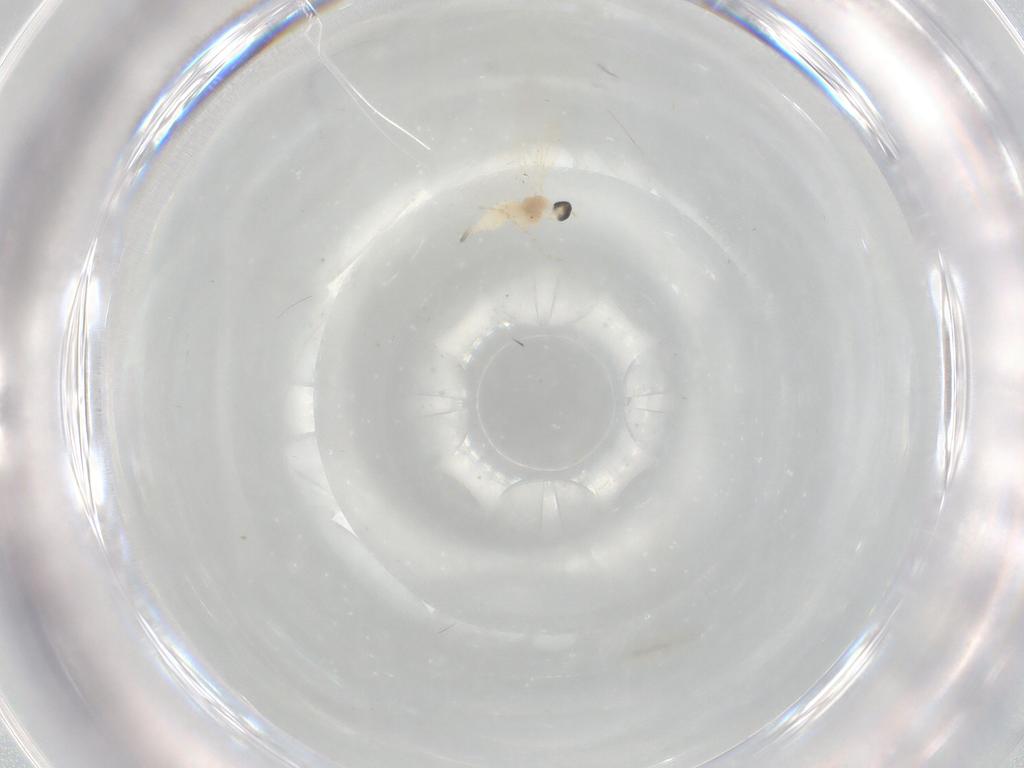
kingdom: Animalia
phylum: Arthropoda
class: Insecta
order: Diptera
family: Cecidomyiidae
